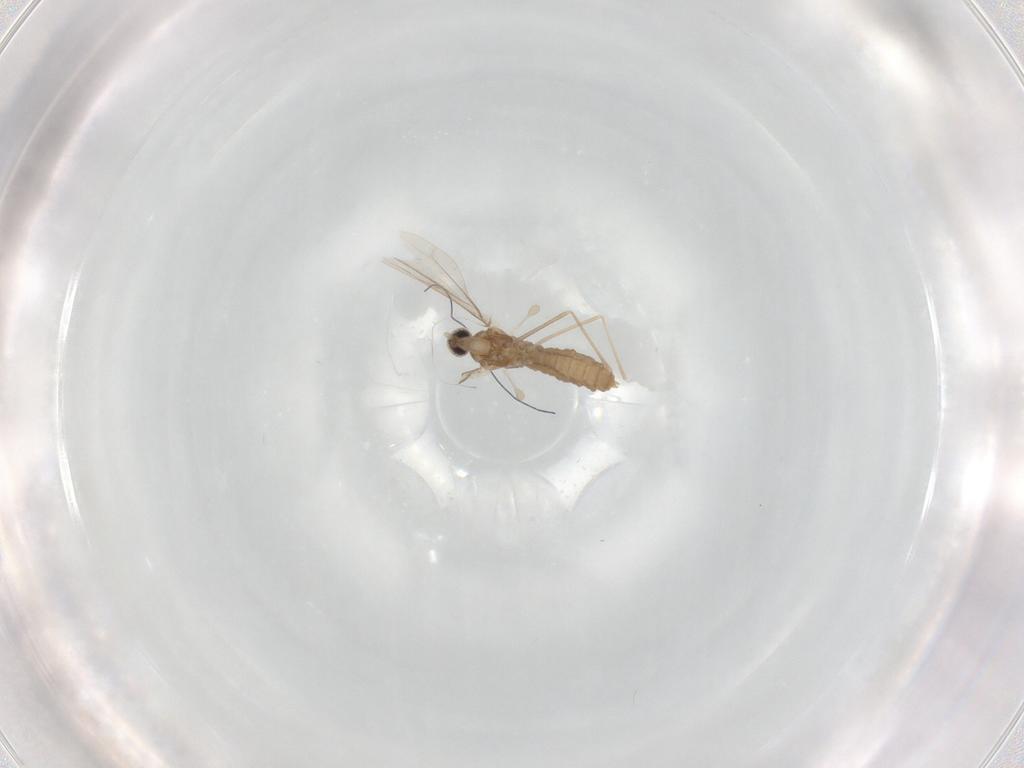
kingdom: Animalia
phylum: Arthropoda
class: Insecta
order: Diptera
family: Cecidomyiidae
